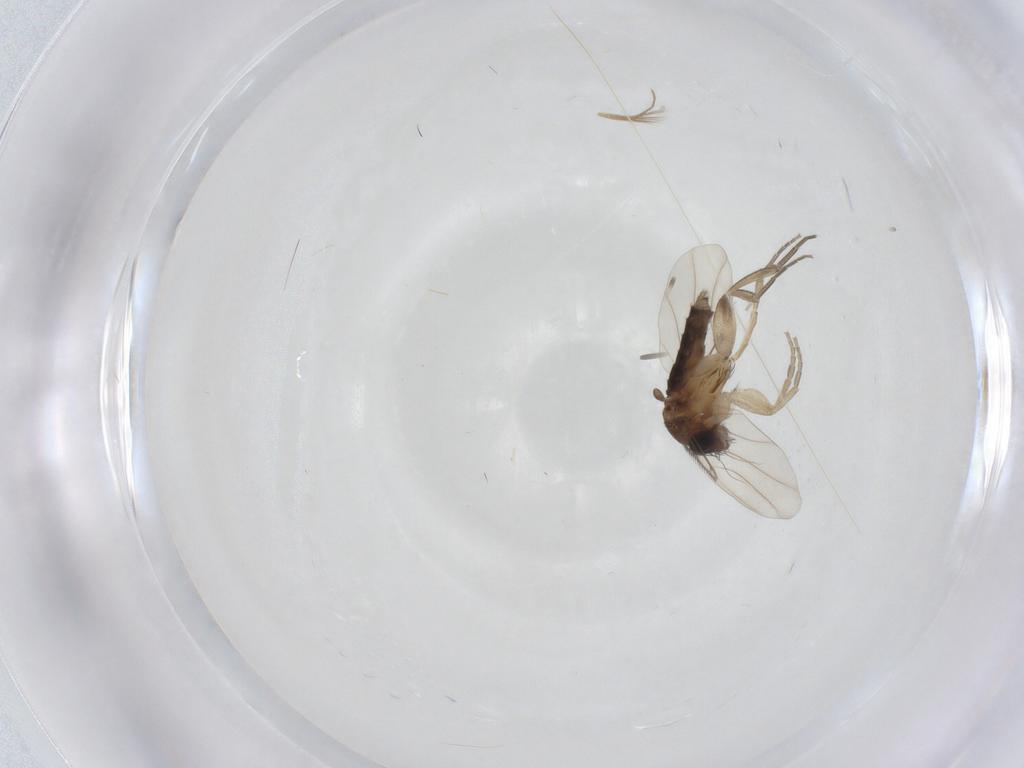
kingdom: Animalia
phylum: Arthropoda
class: Insecta
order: Diptera
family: Phoridae
